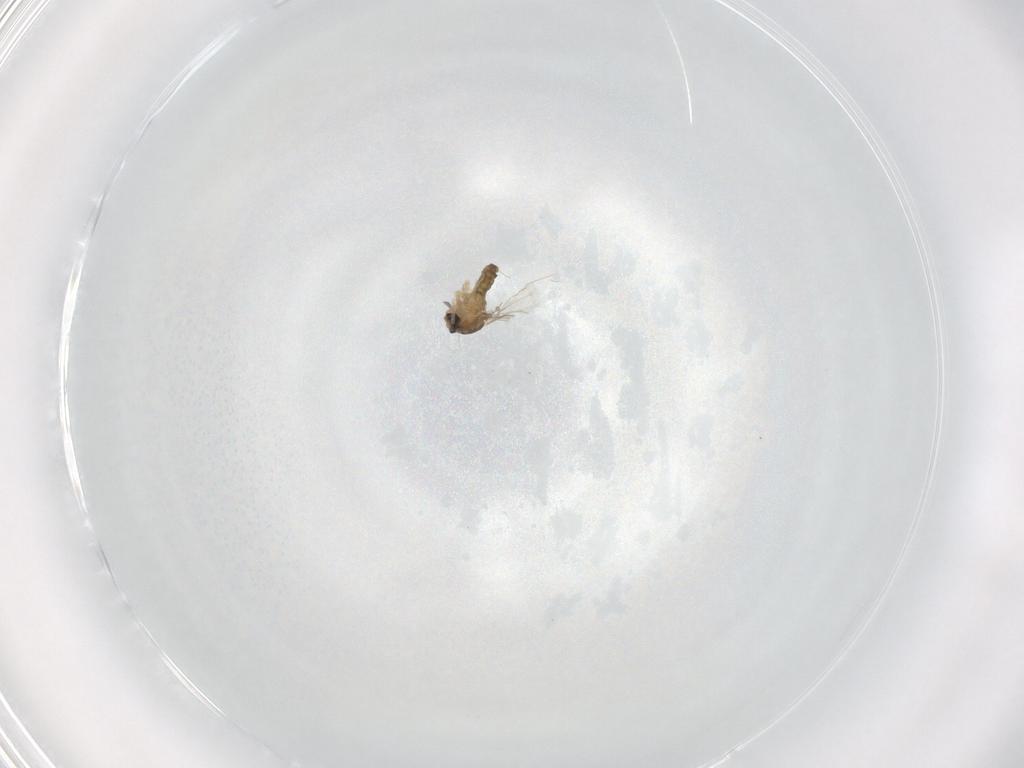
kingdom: Animalia
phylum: Arthropoda
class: Insecta
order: Diptera
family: Cecidomyiidae
